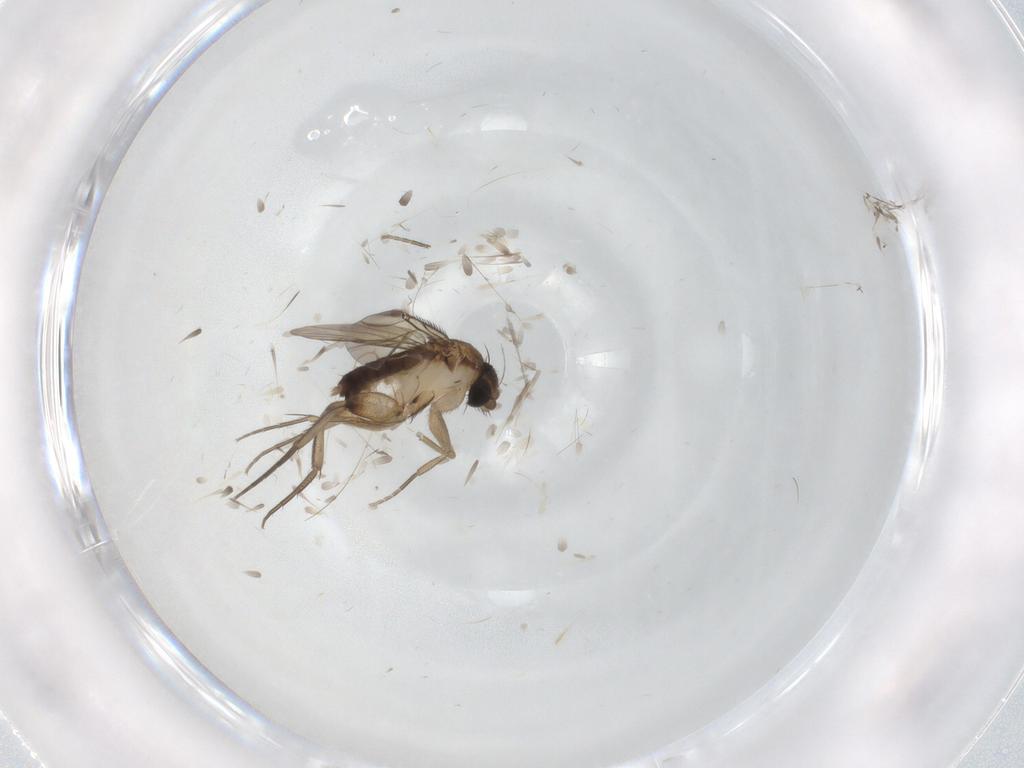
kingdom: Animalia
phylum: Arthropoda
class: Insecta
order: Diptera
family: Phoridae
